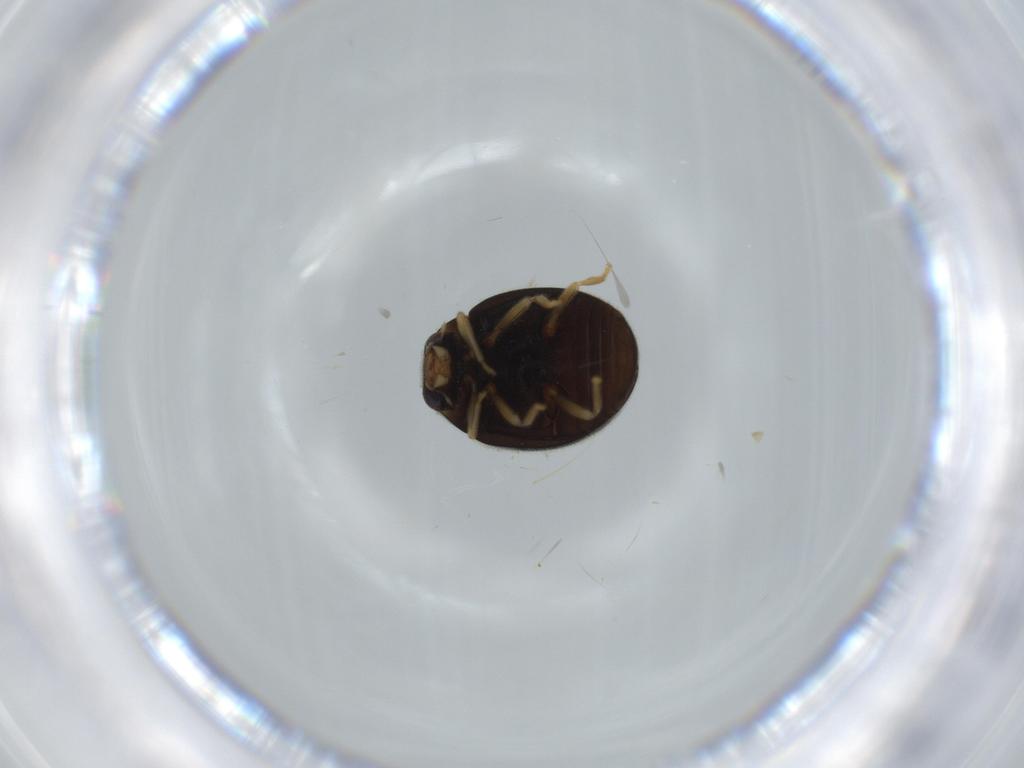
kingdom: Animalia
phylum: Arthropoda
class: Insecta
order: Coleoptera
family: Coccinellidae
